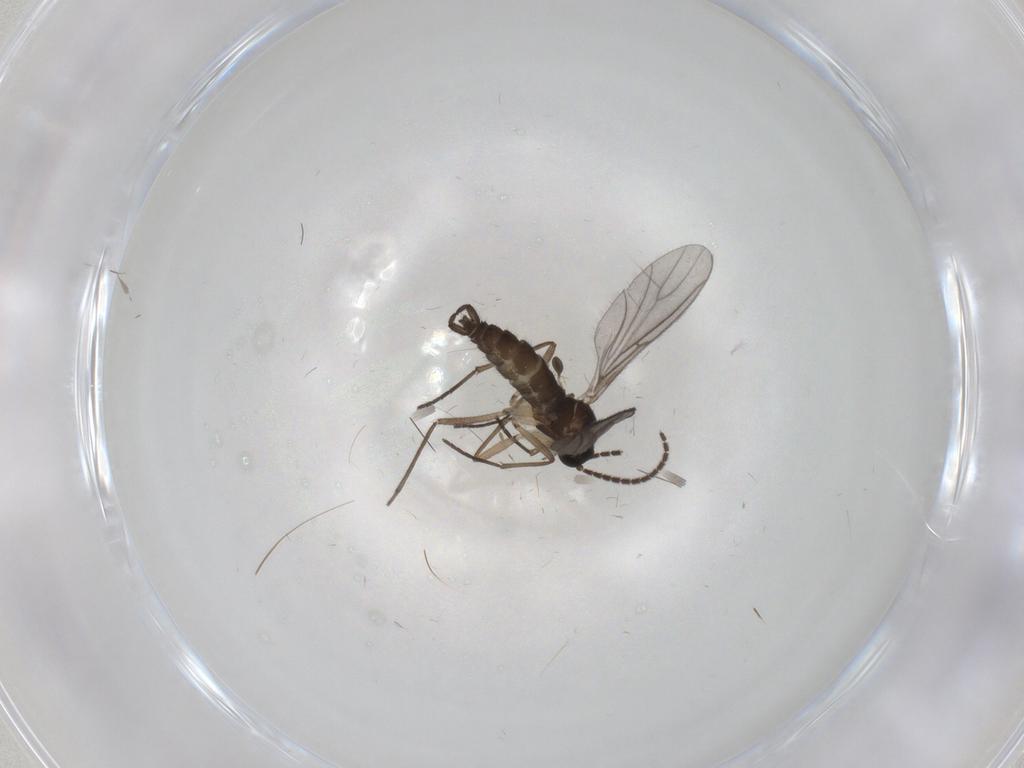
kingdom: Animalia
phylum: Arthropoda
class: Insecta
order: Diptera
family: Sciaridae
